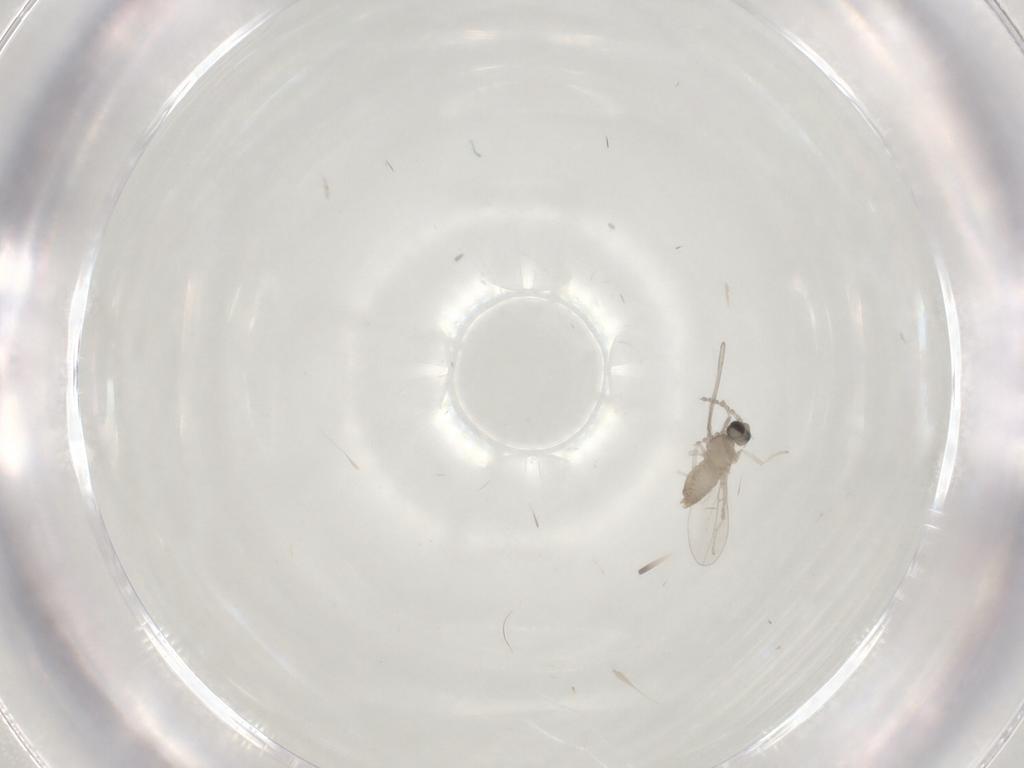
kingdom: Animalia
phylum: Arthropoda
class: Insecta
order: Diptera
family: Cecidomyiidae
